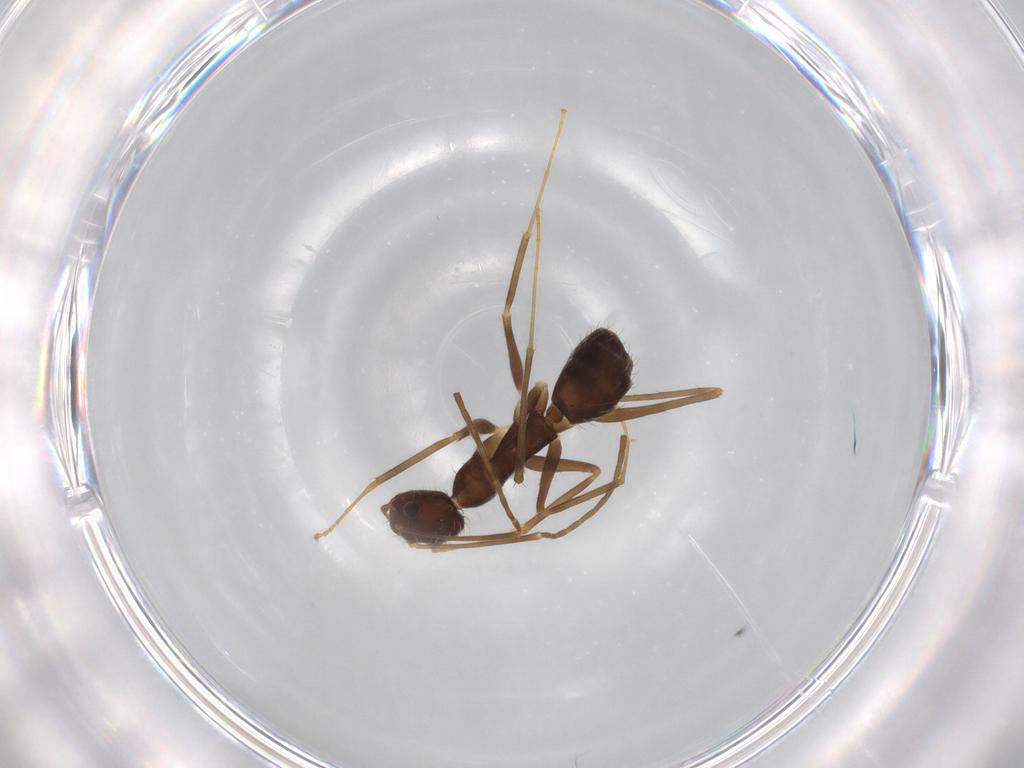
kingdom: Animalia
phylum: Arthropoda
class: Insecta
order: Hymenoptera
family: Formicidae
